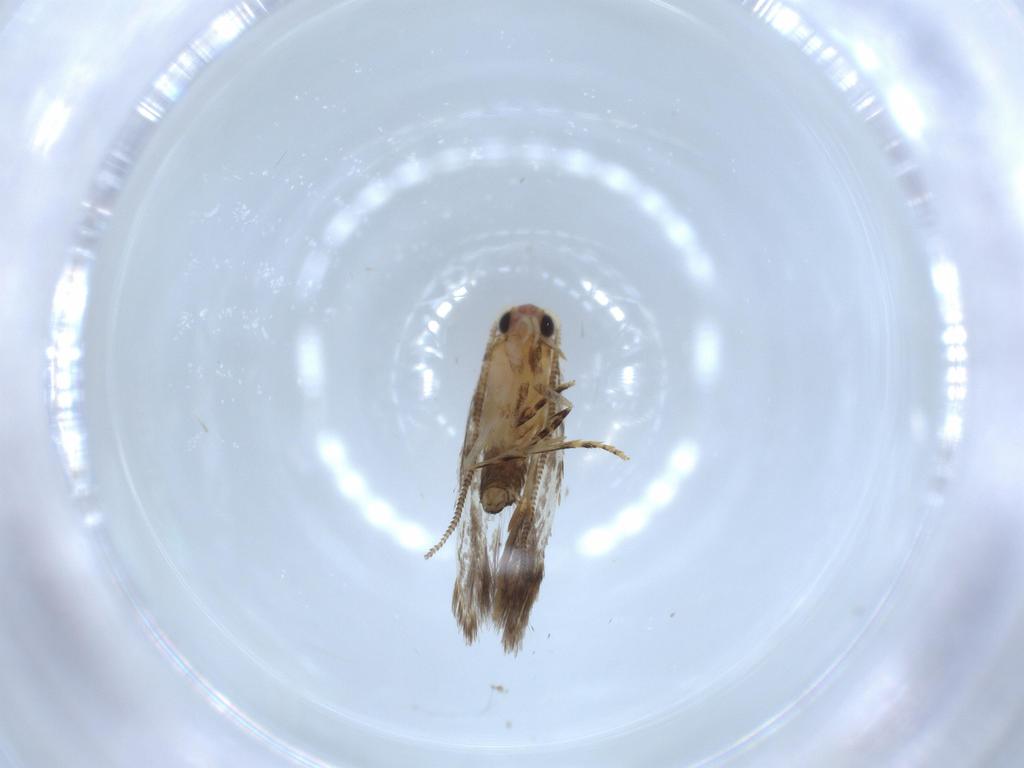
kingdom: Animalia
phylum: Arthropoda
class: Insecta
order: Lepidoptera
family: Tineidae
